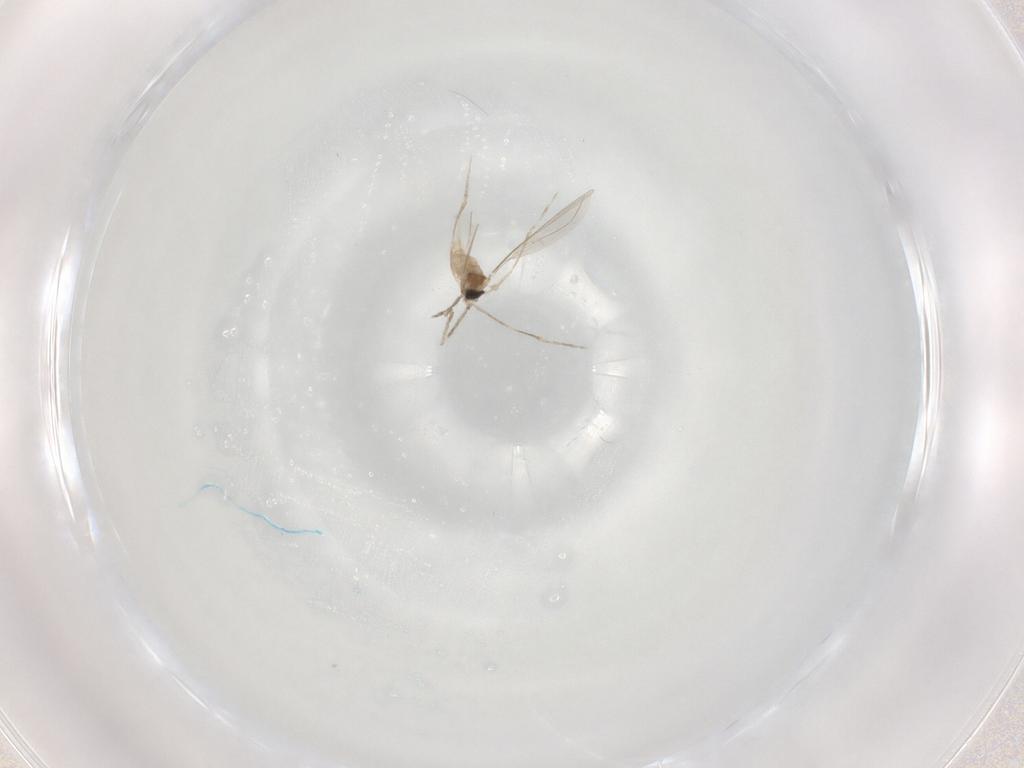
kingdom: Animalia
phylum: Arthropoda
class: Insecta
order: Diptera
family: Cecidomyiidae
